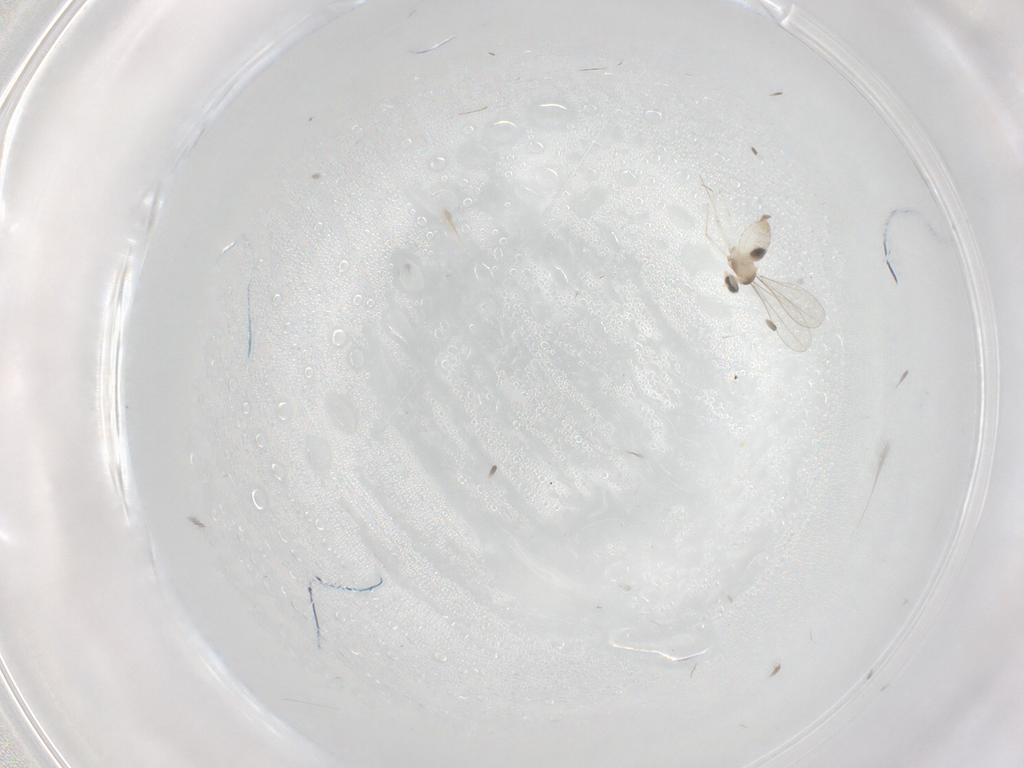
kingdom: Animalia
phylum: Arthropoda
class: Insecta
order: Diptera
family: Cecidomyiidae
